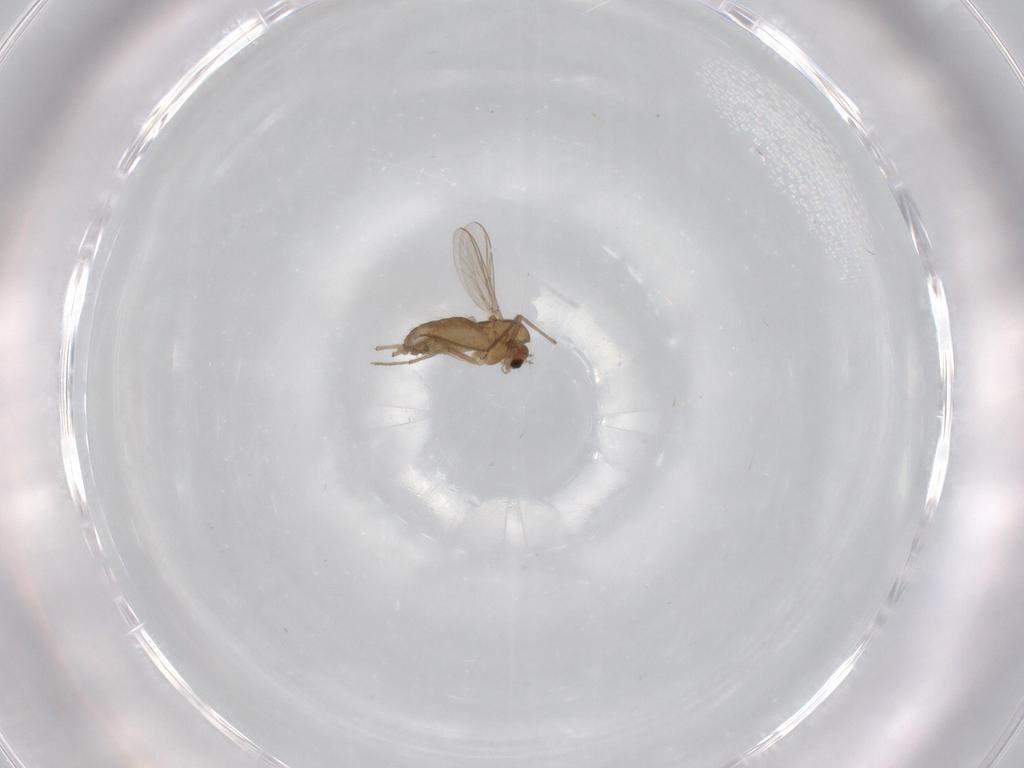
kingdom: Animalia
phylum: Arthropoda
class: Insecta
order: Diptera
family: Chironomidae
